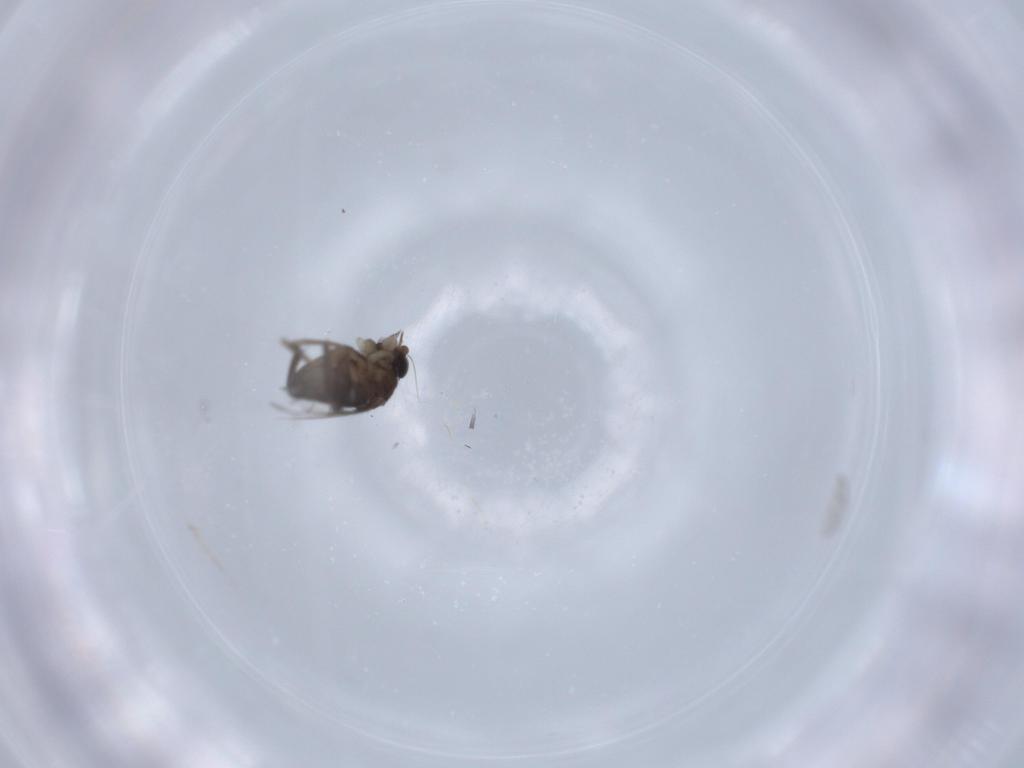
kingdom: Animalia
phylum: Arthropoda
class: Insecta
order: Diptera
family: Phoridae
